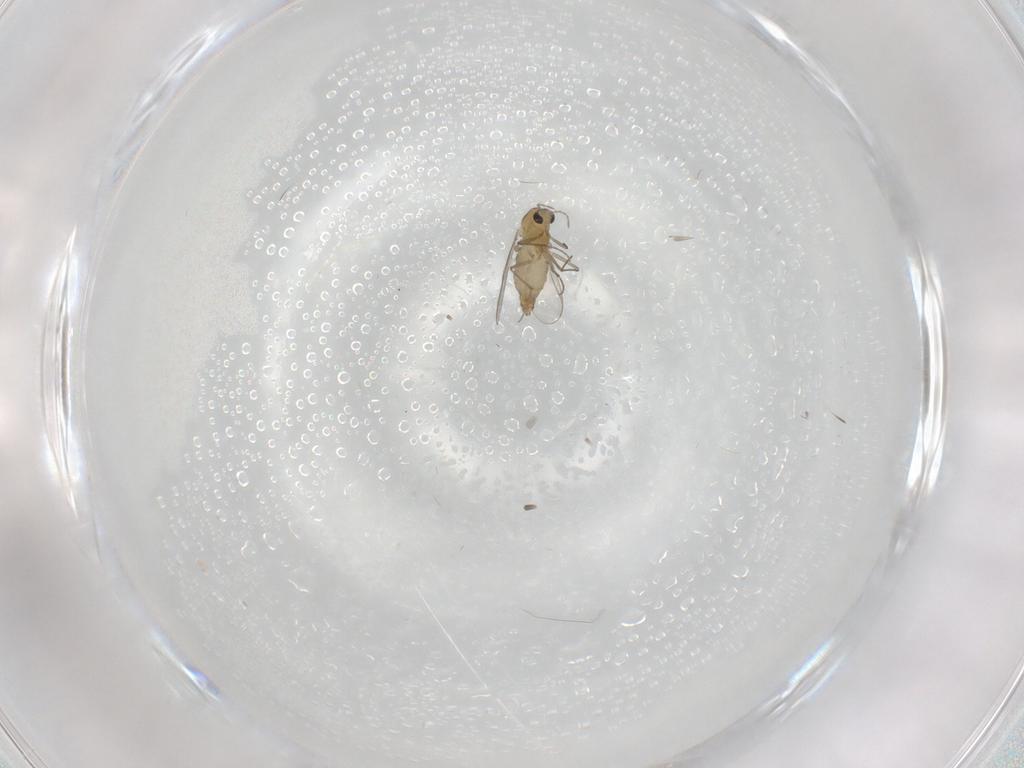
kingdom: Animalia
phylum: Arthropoda
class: Insecta
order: Diptera
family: Chironomidae
